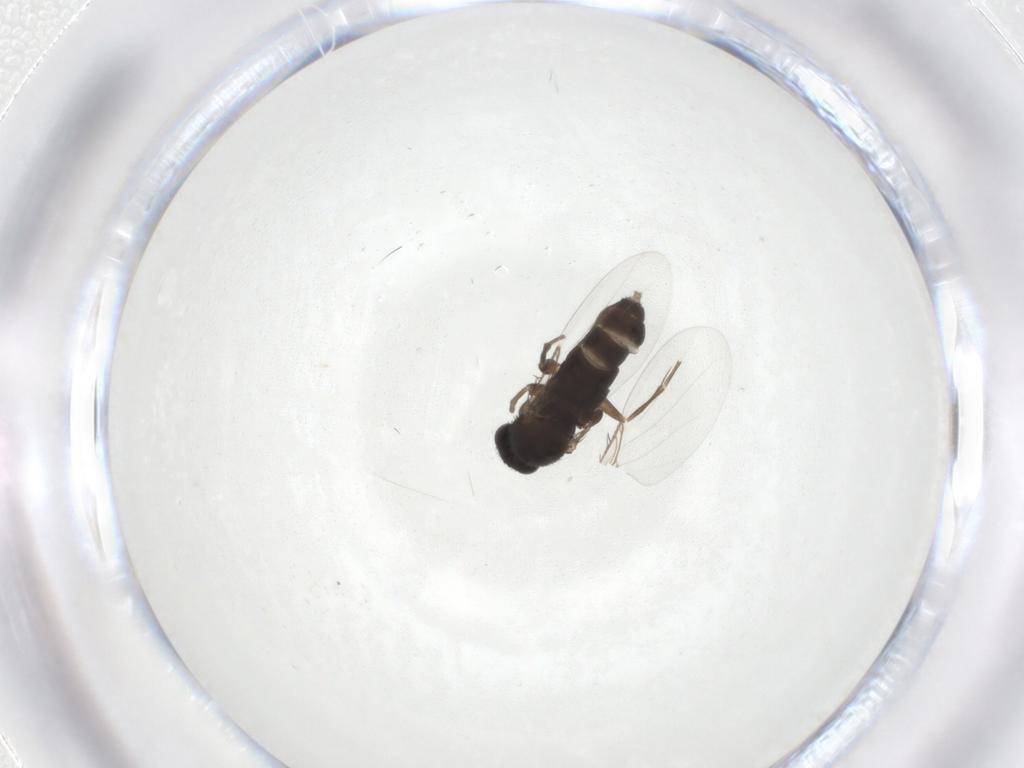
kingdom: Animalia
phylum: Arthropoda
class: Insecta
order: Diptera
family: Phoridae
